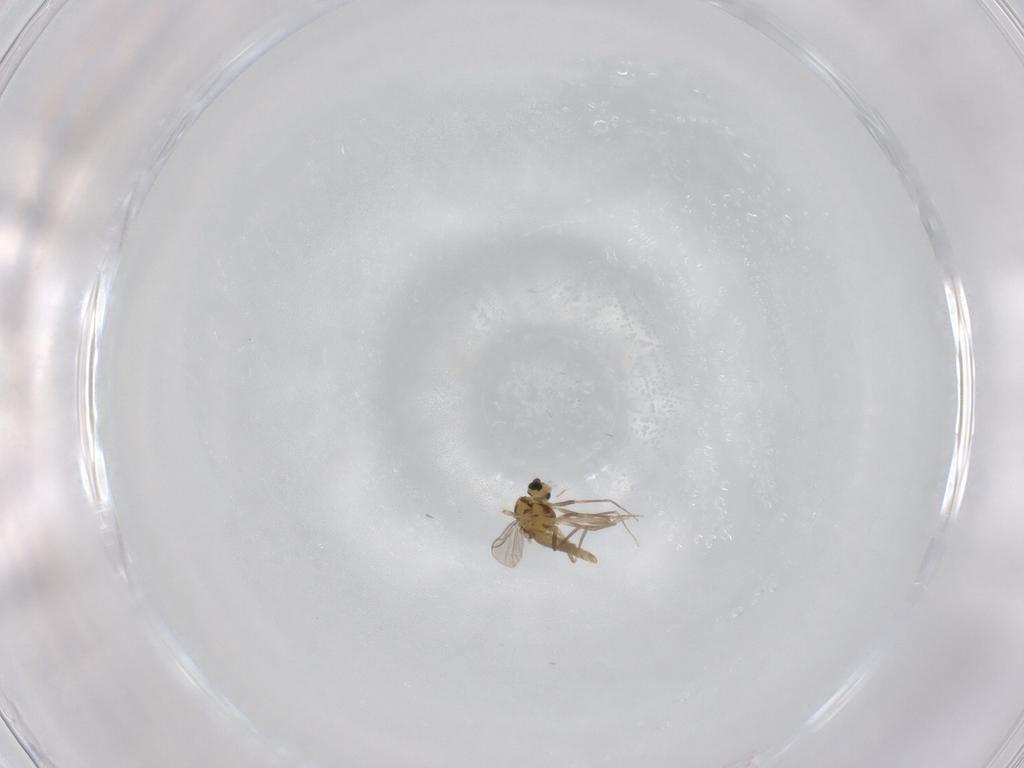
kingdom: Animalia
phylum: Arthropoda
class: Insecta
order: Diptera
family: Chironomidae
